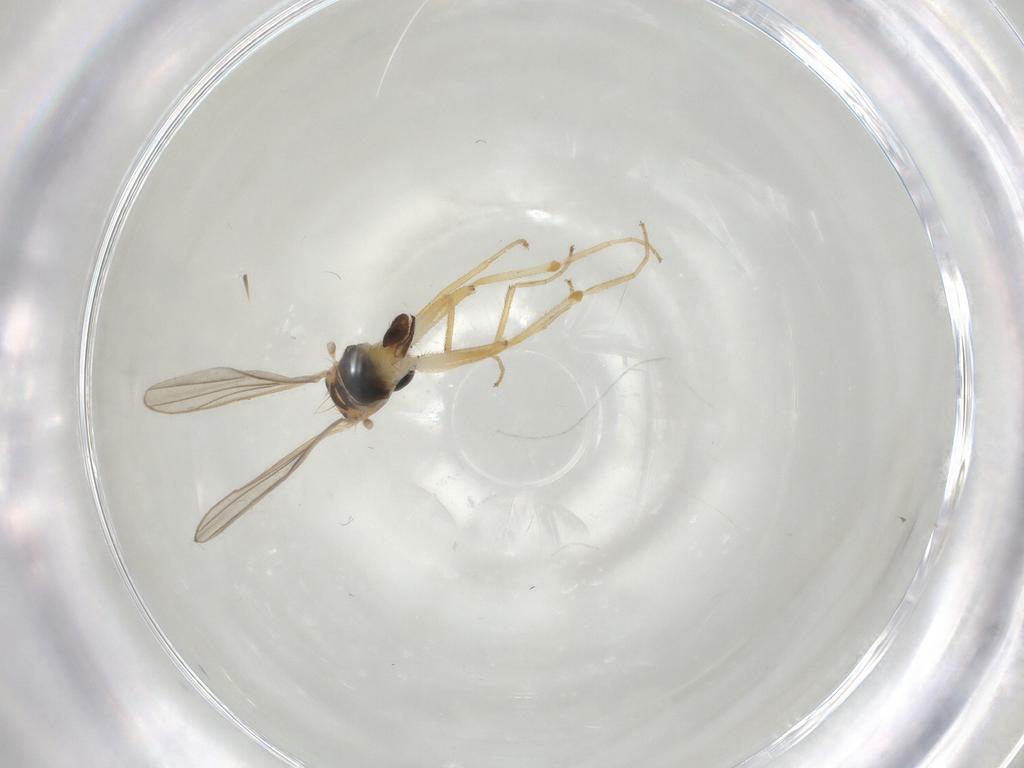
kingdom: Animalia
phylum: Arthropoda
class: Insecta
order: Diptera
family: Hybotidae
